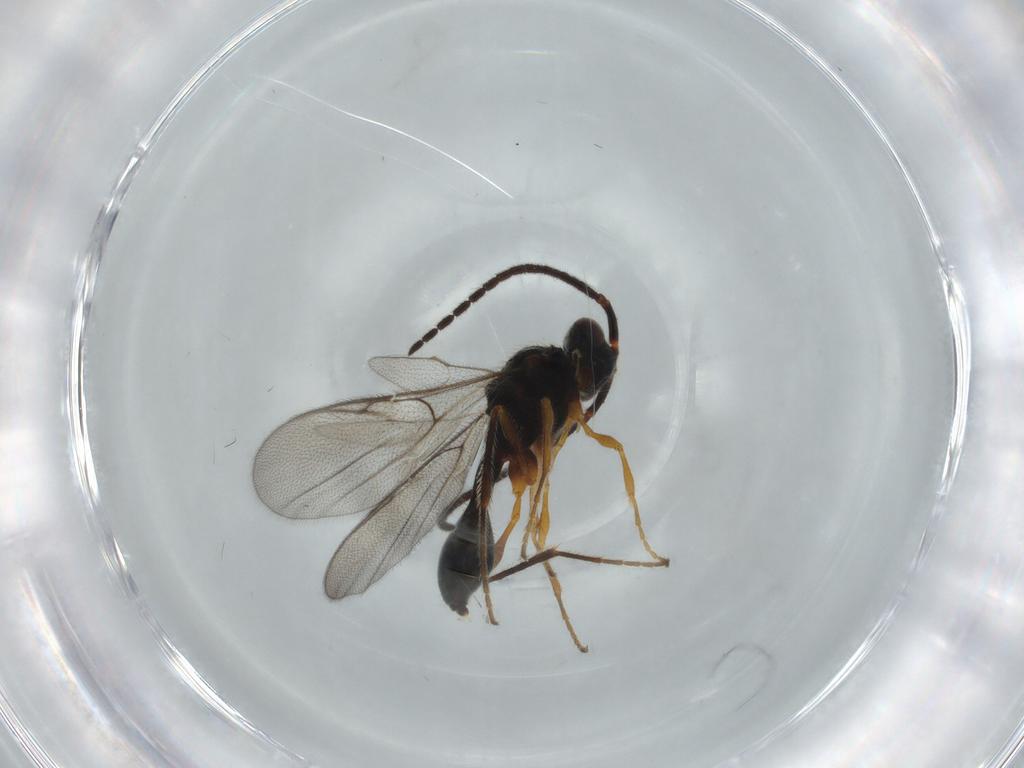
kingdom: Animalia
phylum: Arthropoda
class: Insecta
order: Hymenoptera
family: Diapriidae
